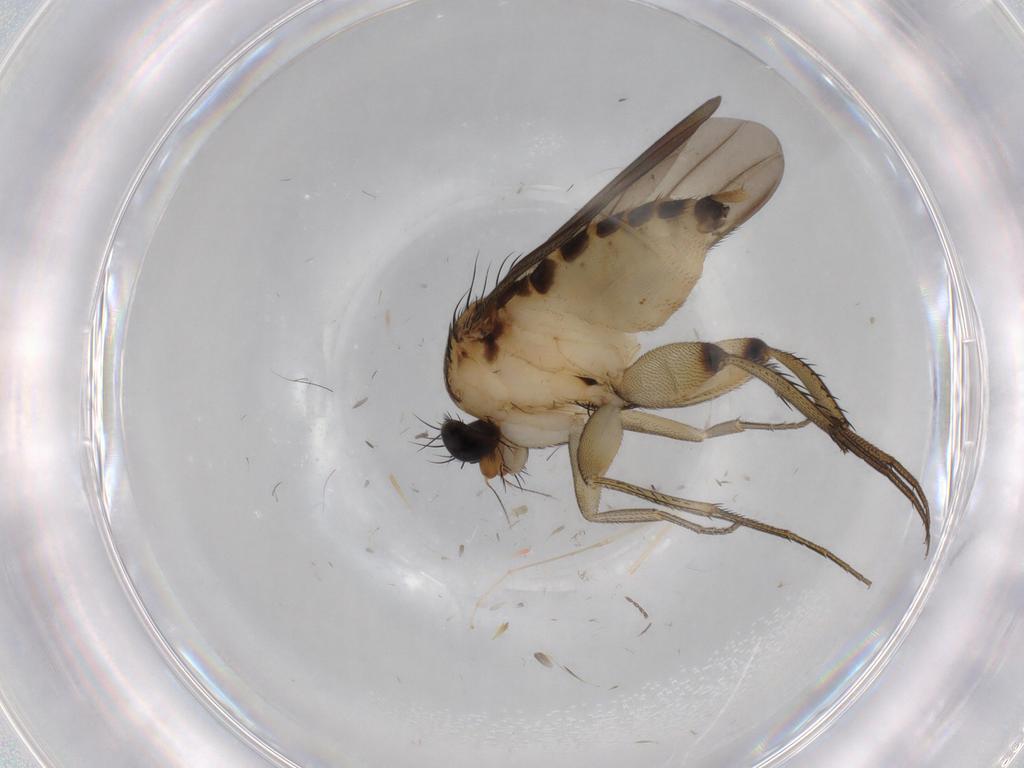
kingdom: Animalia
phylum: Arthropoda
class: Insecta
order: Diptera
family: Phoridae
